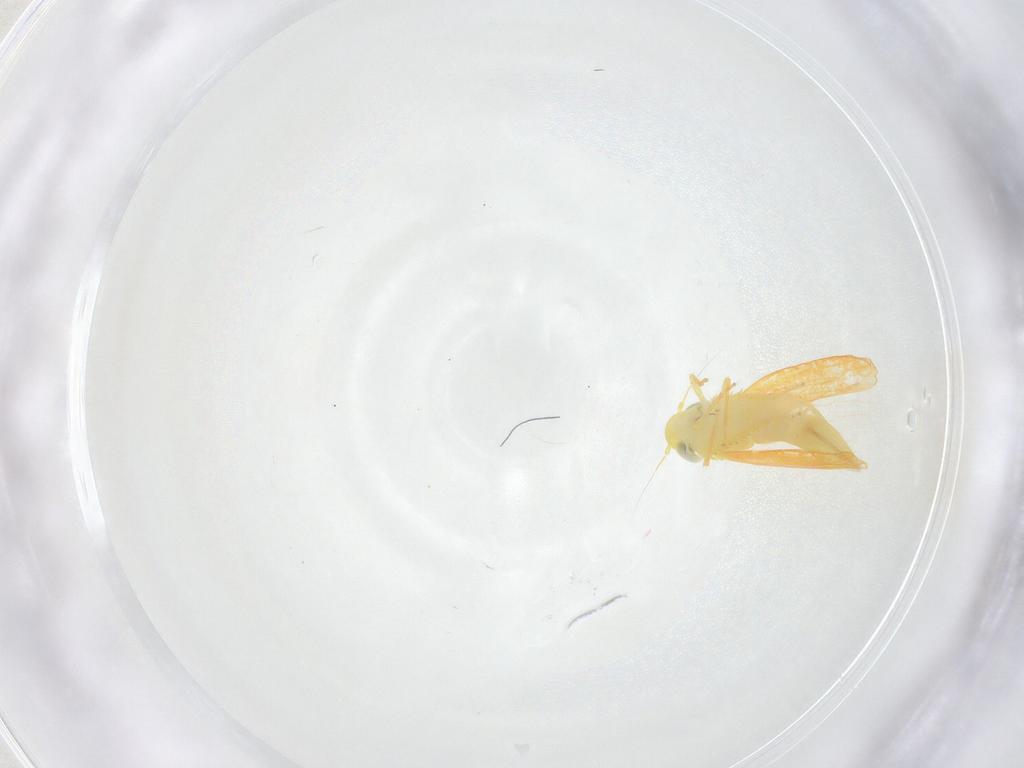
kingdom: Animalia
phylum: Arthropoda
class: Insecta
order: Hemiptera
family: Cicadellidae
